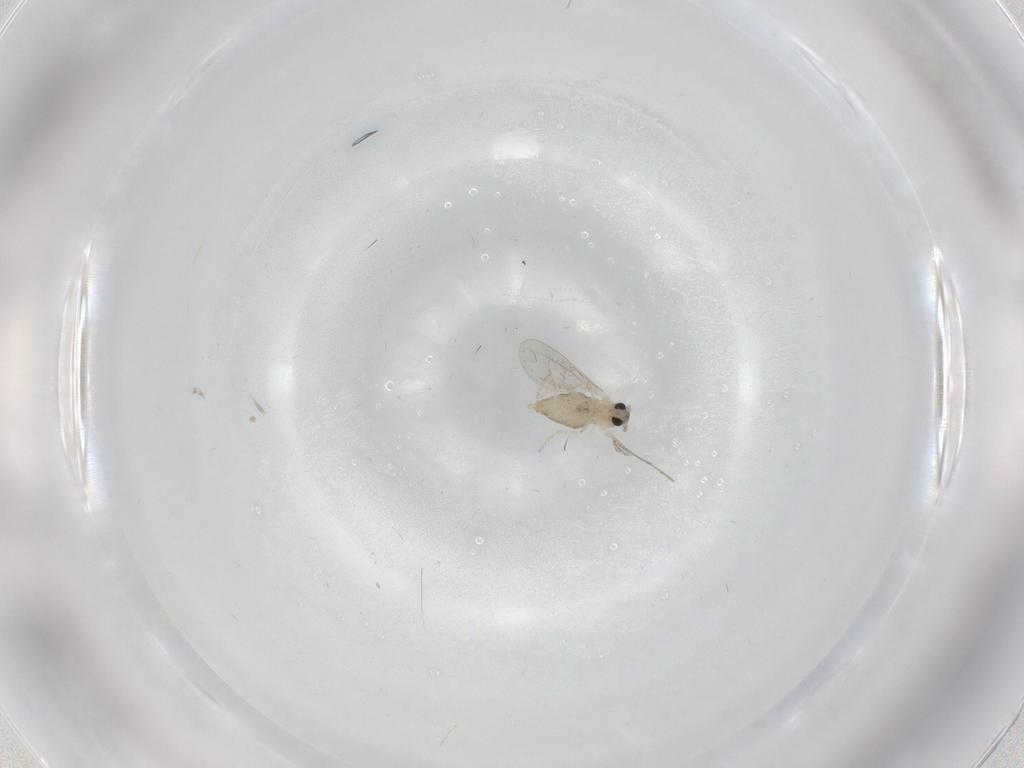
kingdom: Animalia
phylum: Arthropoda
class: Insecta
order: Diptera
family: Cecidomyiidae
